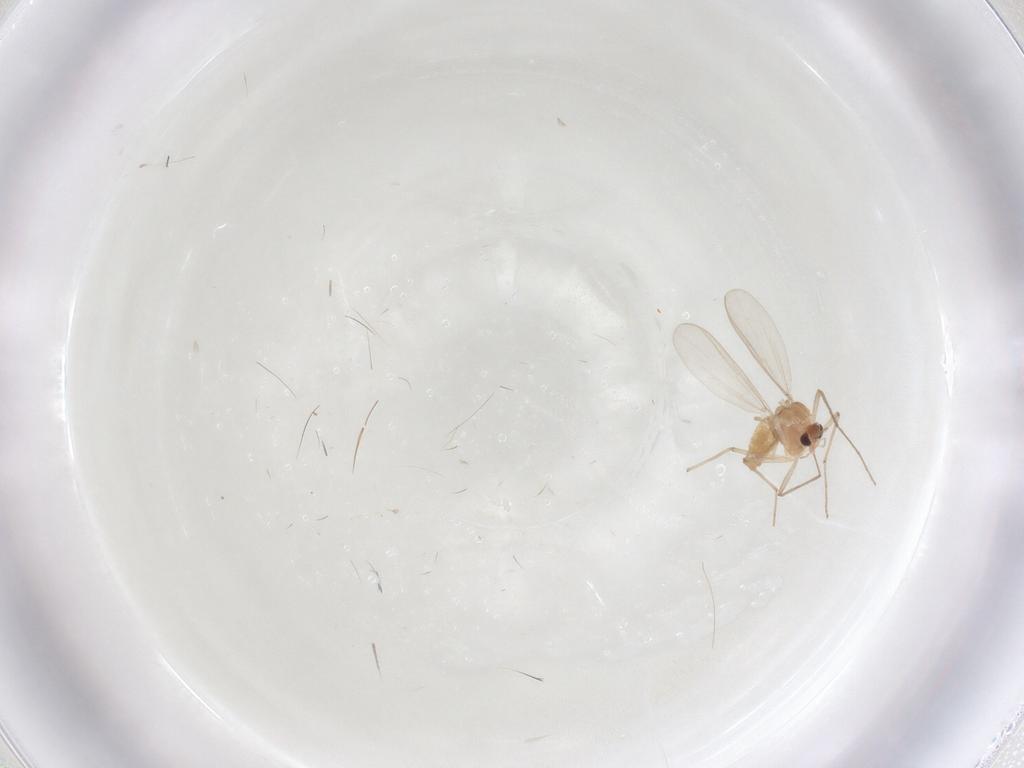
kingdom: Animalia
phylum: Arthropoda
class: Insecta
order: Diptera
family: Chironomidae
